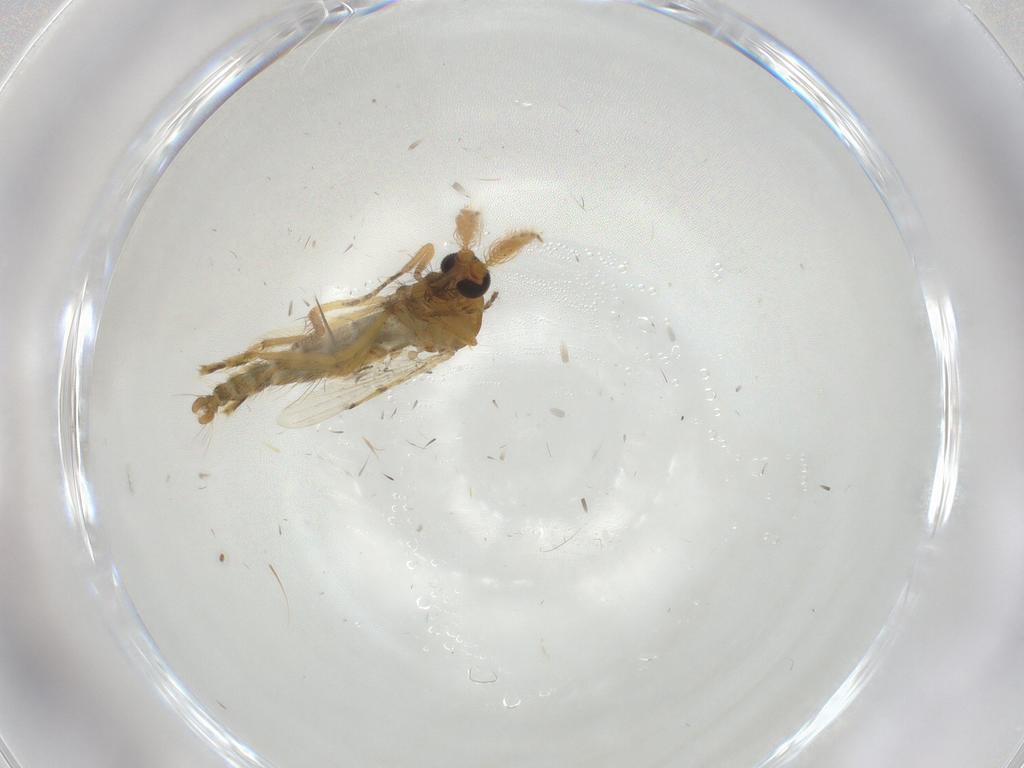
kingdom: Animalia
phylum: Arthropoda
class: Insecta
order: Diptera
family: Ceratopogonidae
